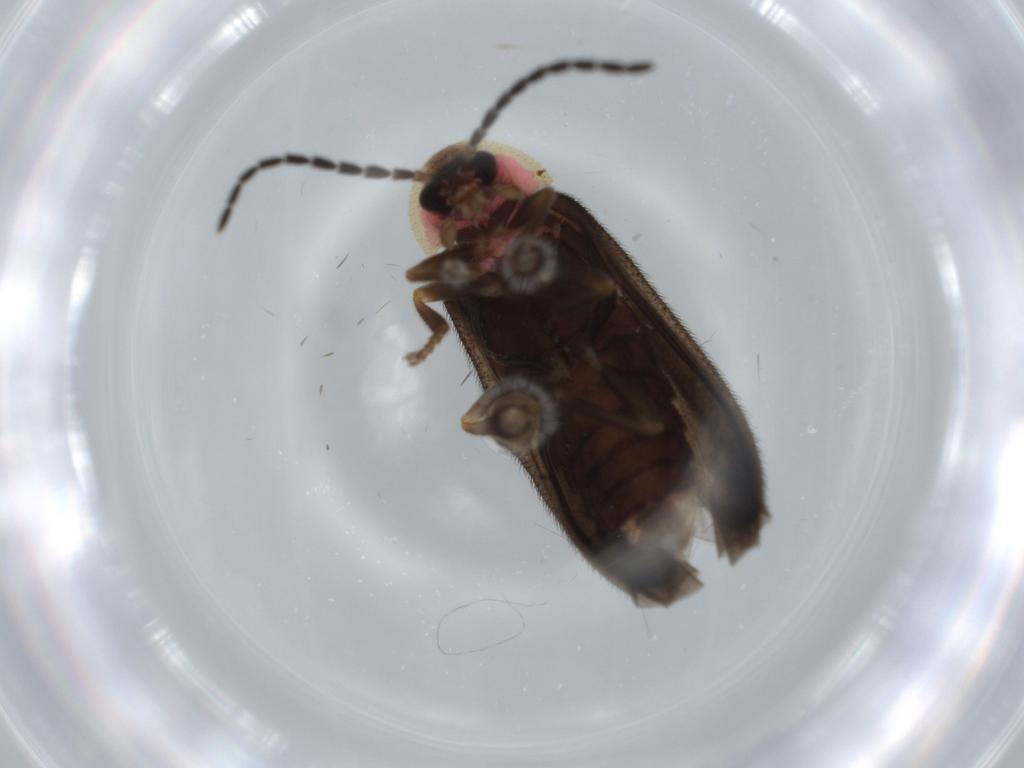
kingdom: Animalia
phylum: Arthropoda
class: Insecta
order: Coleoptera
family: Lampyridae
